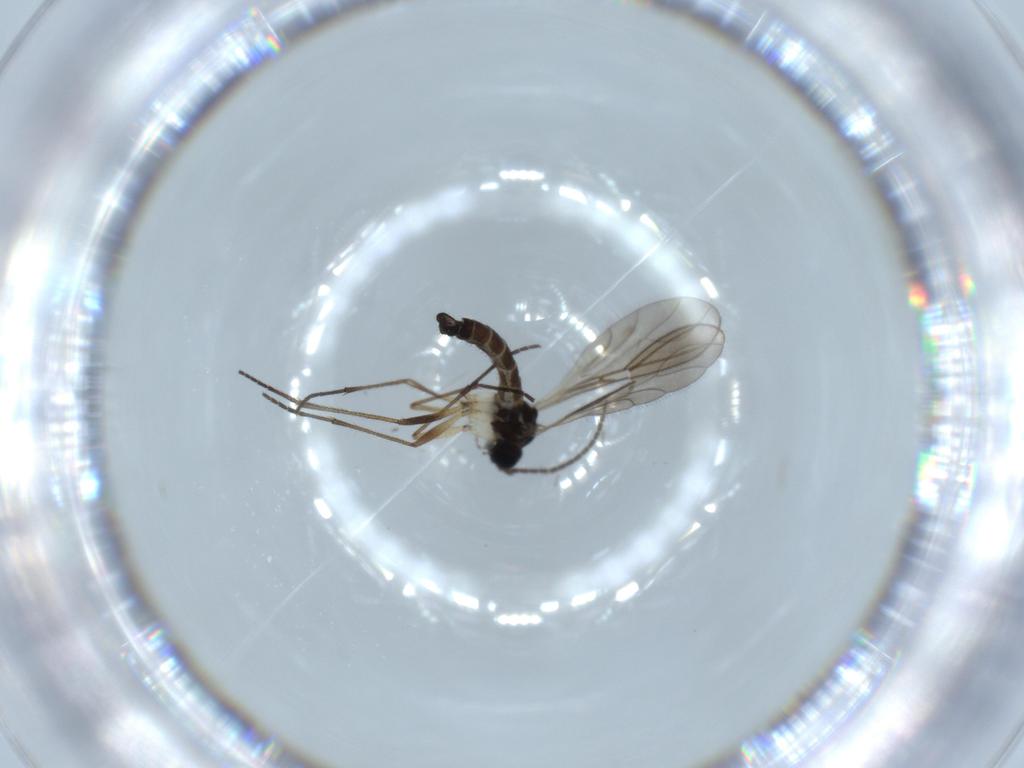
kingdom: Animalia
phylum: Arthropoda
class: Insecta
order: Diptera
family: Sciaridae
